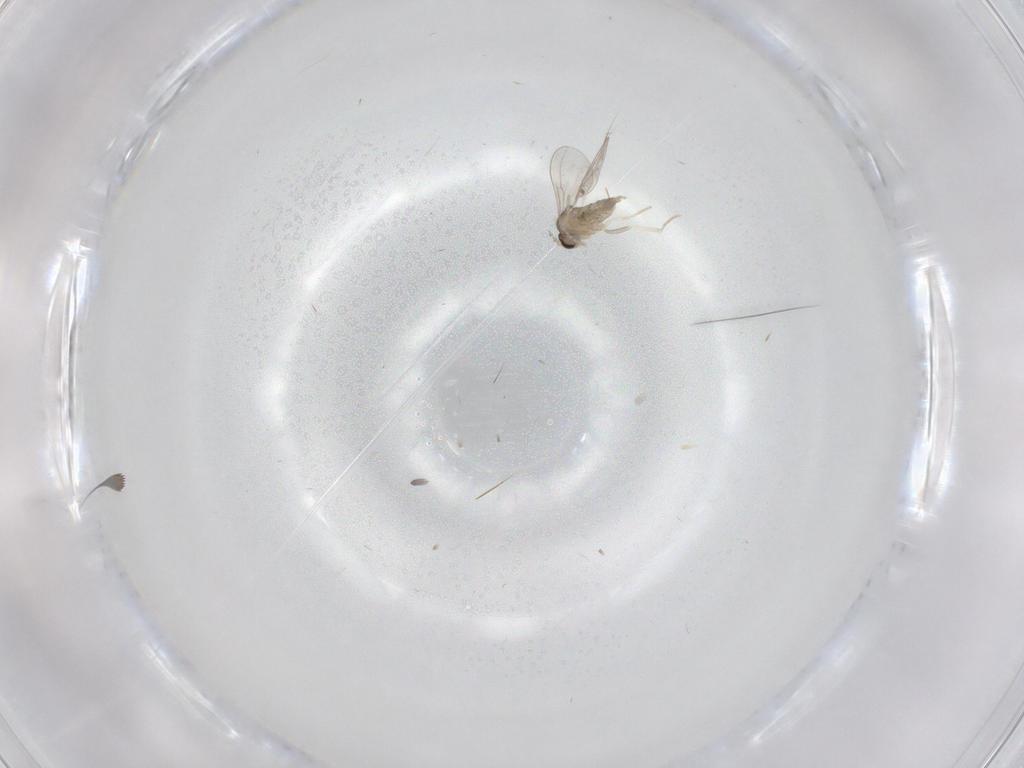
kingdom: Animalia
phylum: Arthropoda
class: Insecta
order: Diptera
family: Cecidomyiidae
